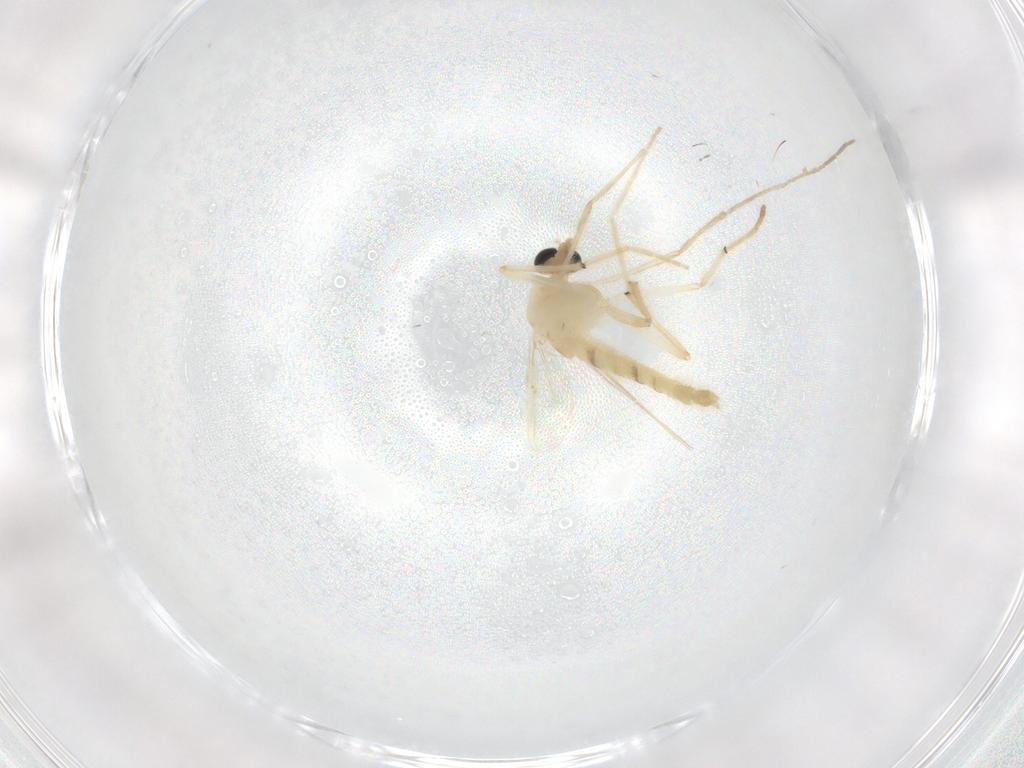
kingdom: Animalia
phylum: Arthropoda
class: Insecta
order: Diptera
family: Chironomidae
